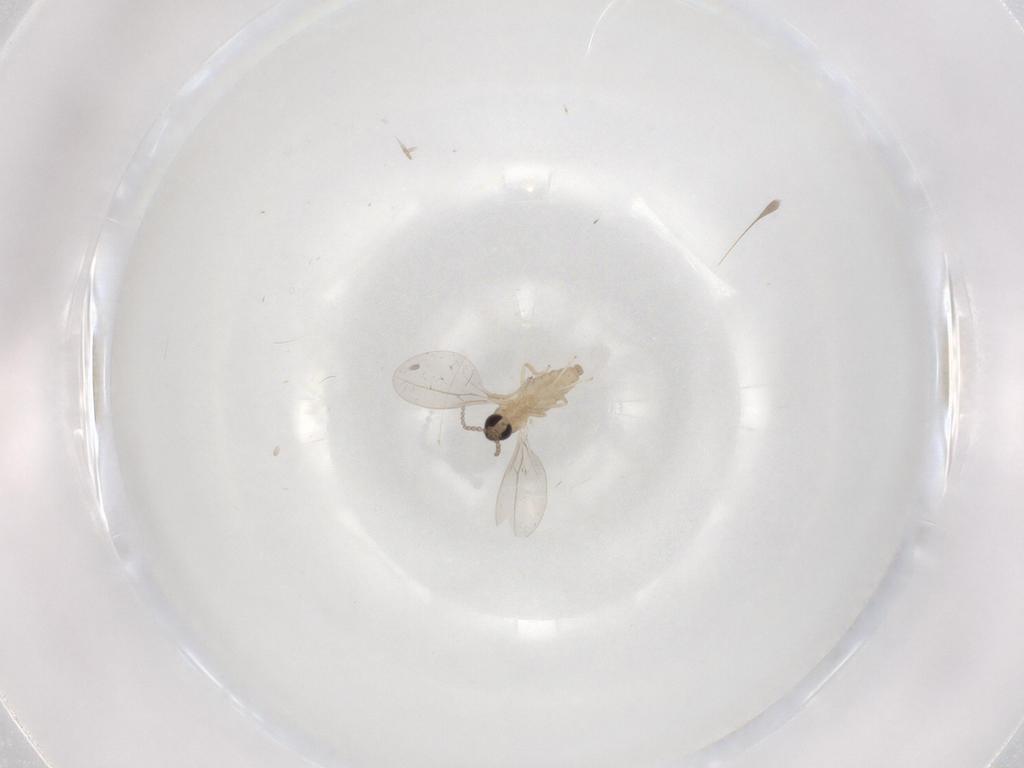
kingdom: Animalia
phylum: Arthropoda
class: Insecta
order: Diptera
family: Cecidomyiidae
